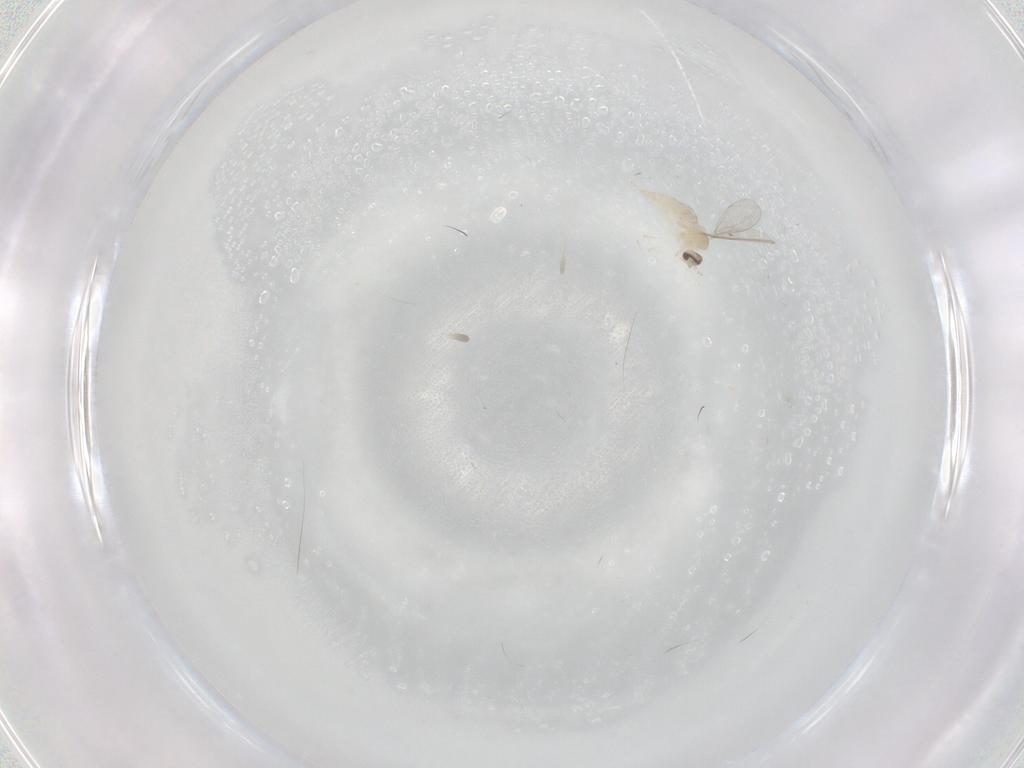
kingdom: Animalia
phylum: Arthropoda
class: Insecta
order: Diptera
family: Cecidomyiidae
